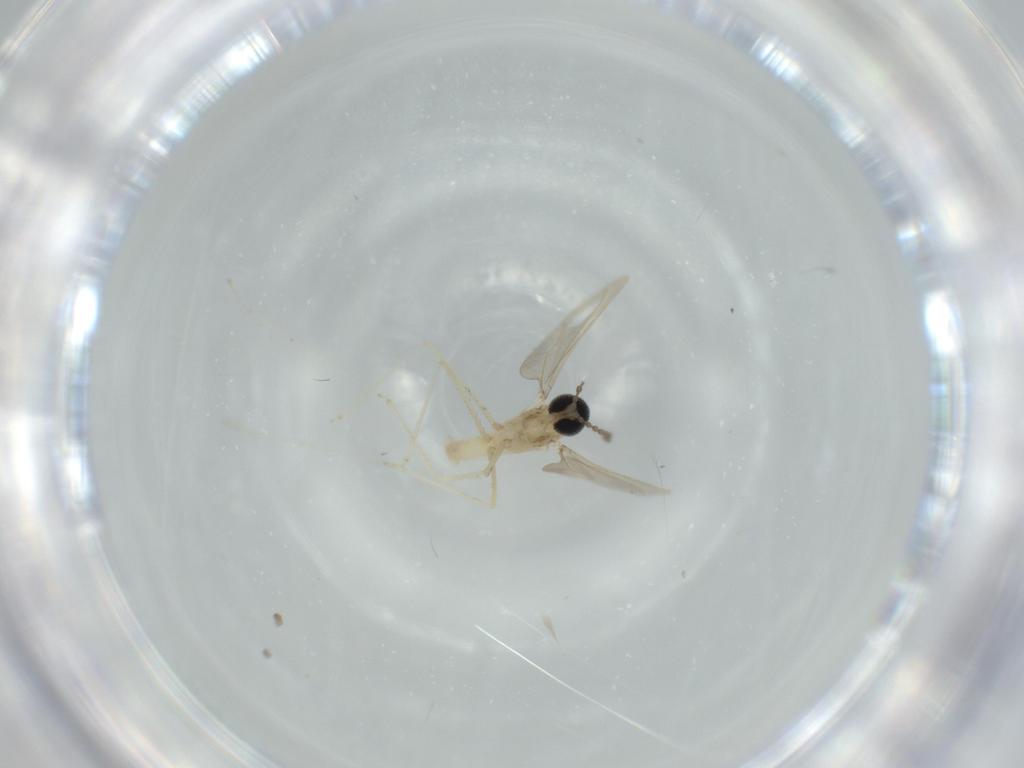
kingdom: Animalia
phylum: Arthropoda
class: Insecta
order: Diptera
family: Cecidomyiidae
